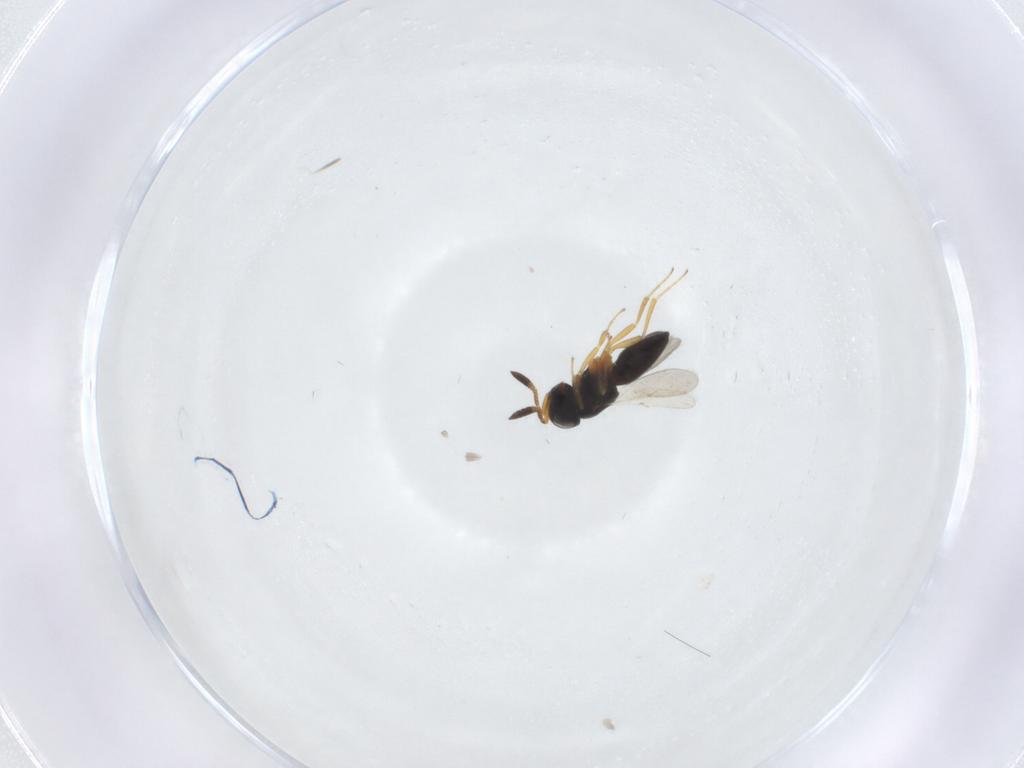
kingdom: Animalia
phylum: Arthropoda
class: Insecta
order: Hymenoptera
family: Scelionidae
